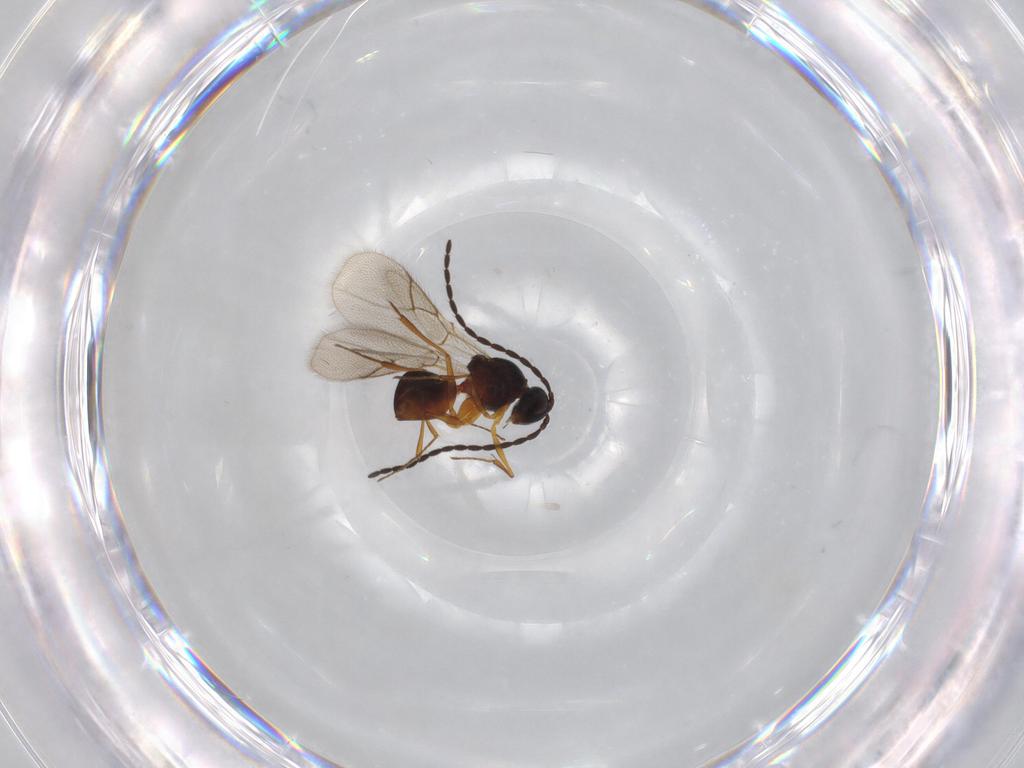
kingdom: Animalia
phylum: Arthropoda
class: Insecta
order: Hymenoptera
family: Figitidae
